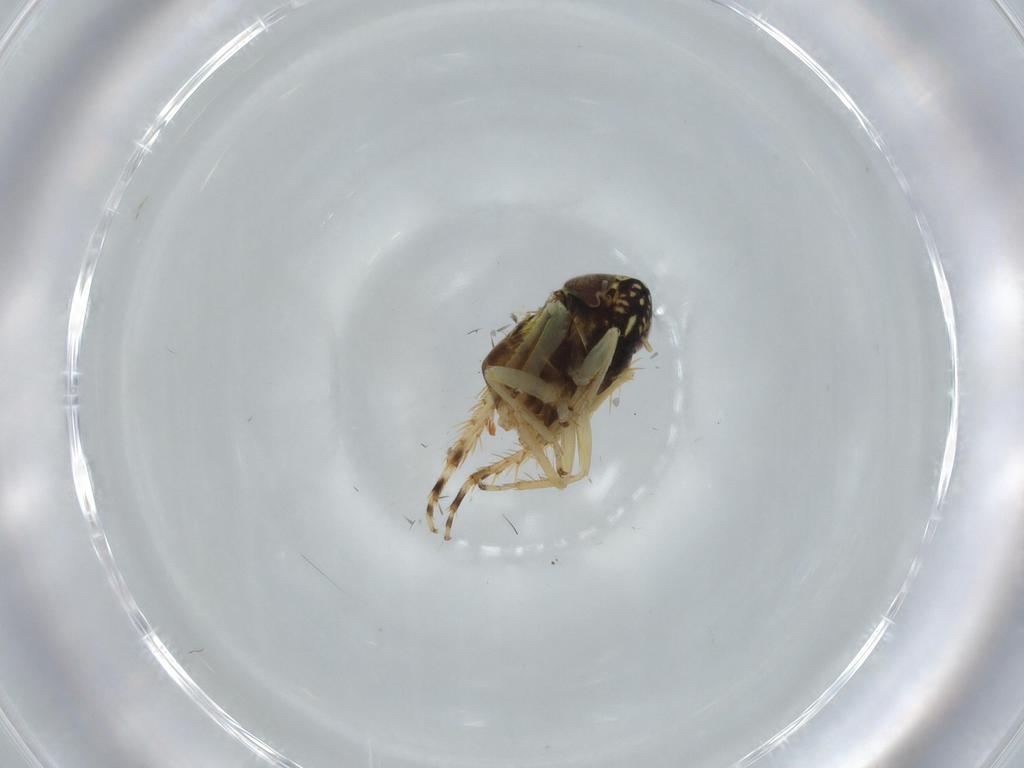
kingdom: Animalia
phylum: Arthropoda
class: Insecta
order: Hemiptera
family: Cicadellidae
